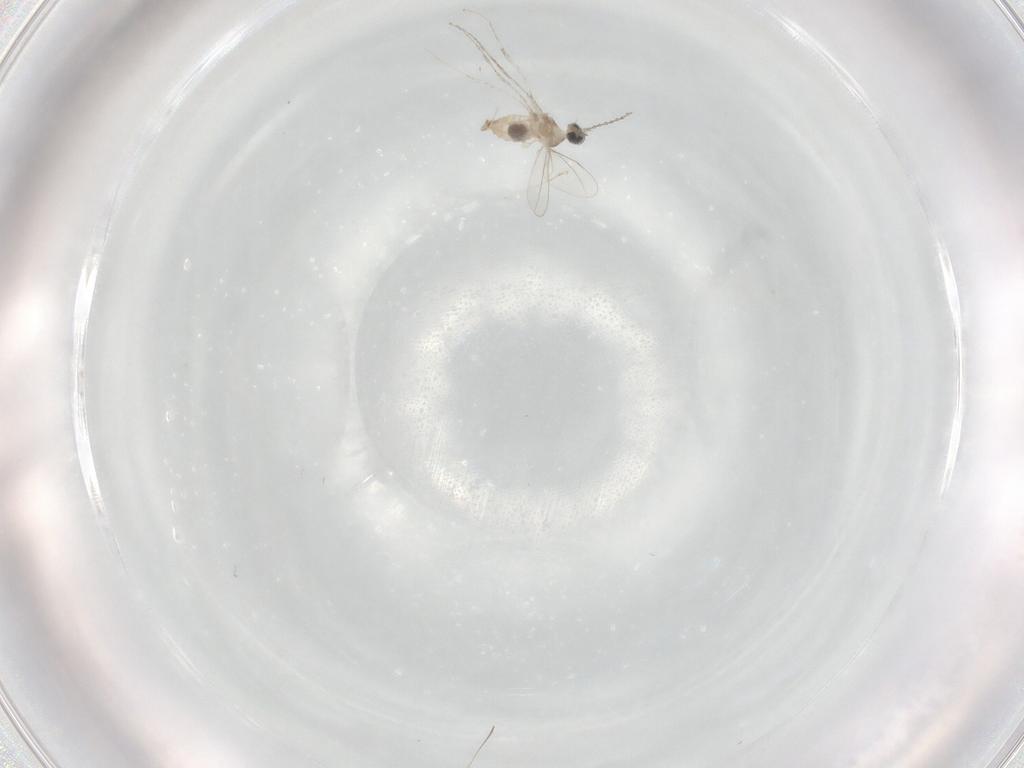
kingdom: Animalia
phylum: Arthropoda
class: Insecta
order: Diptera
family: Cecidomyiidae
